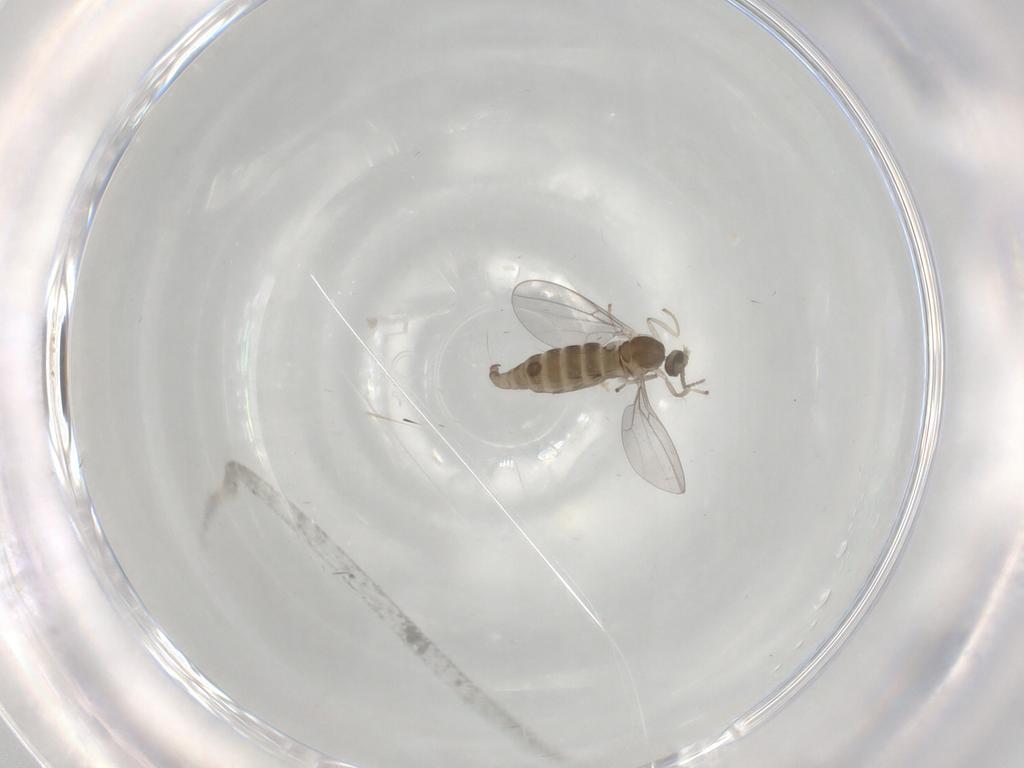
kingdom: Animalia
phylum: Arthropoda
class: Insecta
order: Diptera
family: Cecidomyiidae
